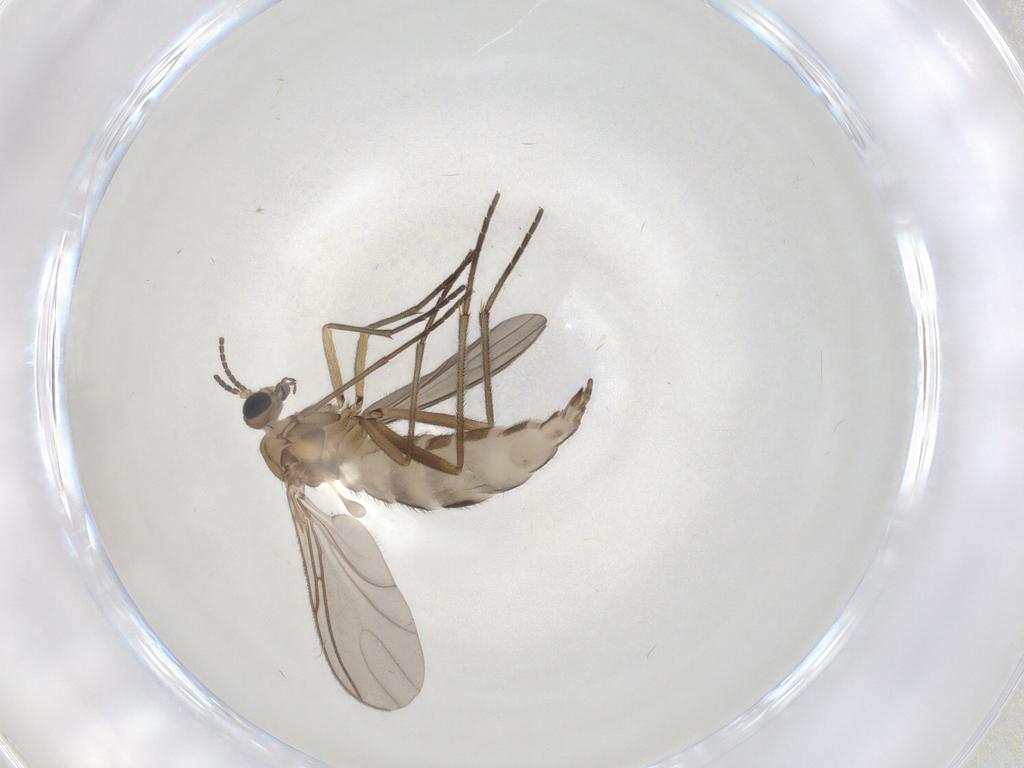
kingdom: Animalia
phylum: Arthropoda
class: Insecta
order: Diptera
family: Sciaridae
